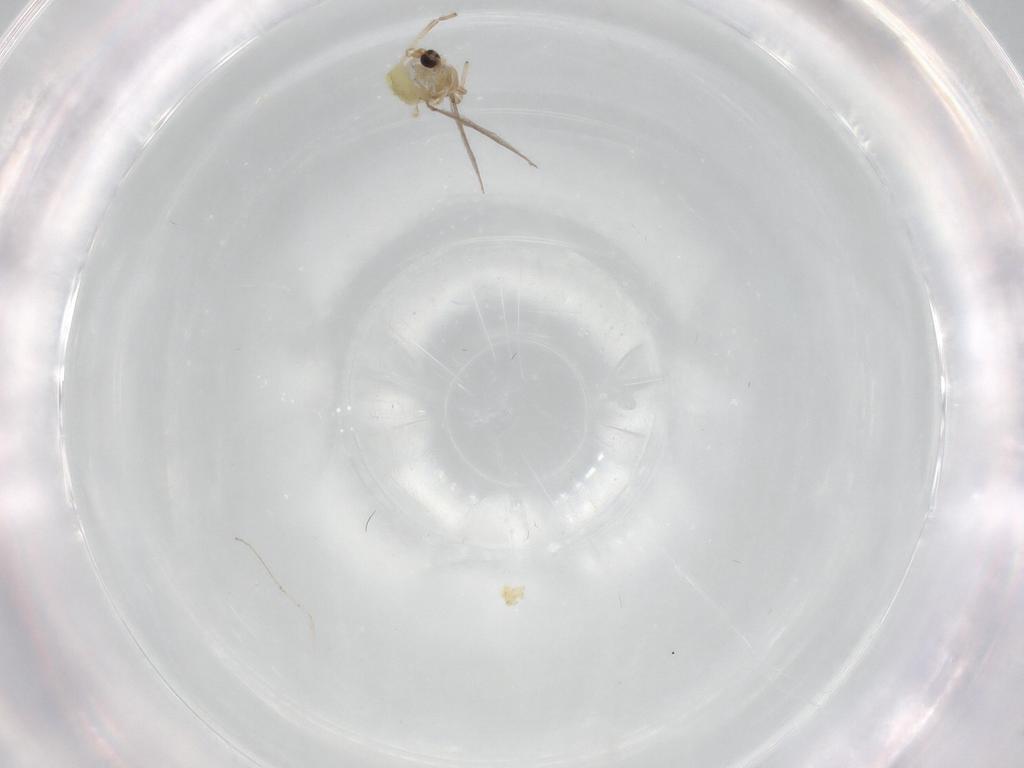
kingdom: Animalia
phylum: Arthropoda
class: Insecta
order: Diptera
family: Chironomidae
